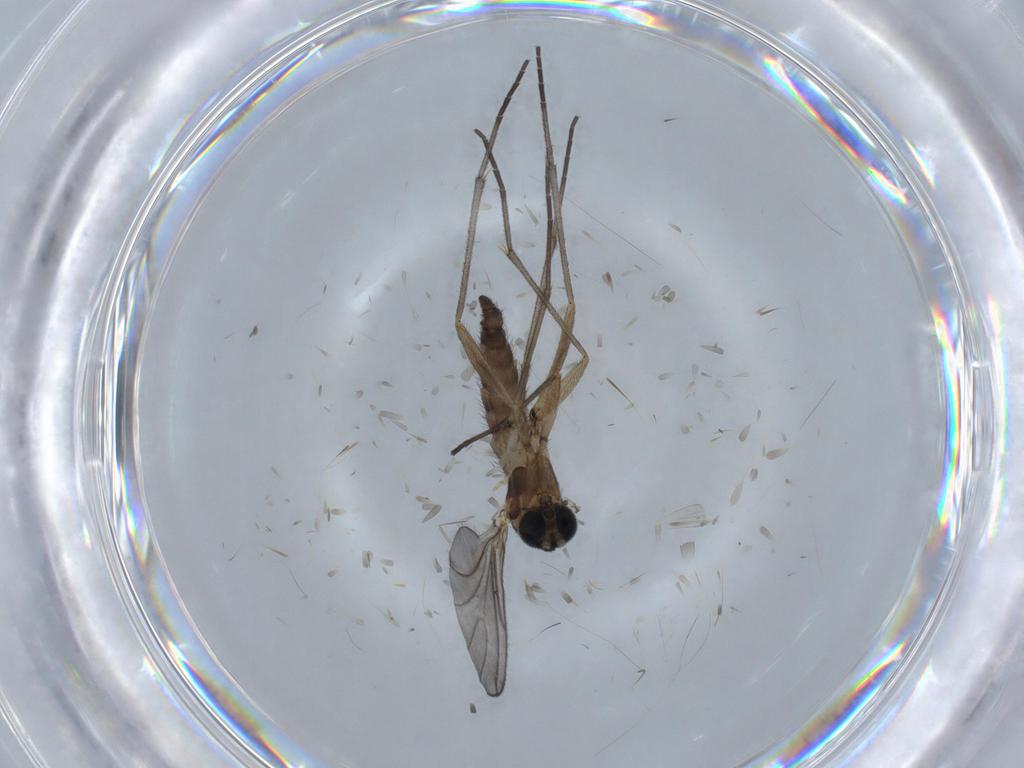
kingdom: Animalia
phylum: Arthropoda
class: Insecta
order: Diptera
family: Sciaridae
